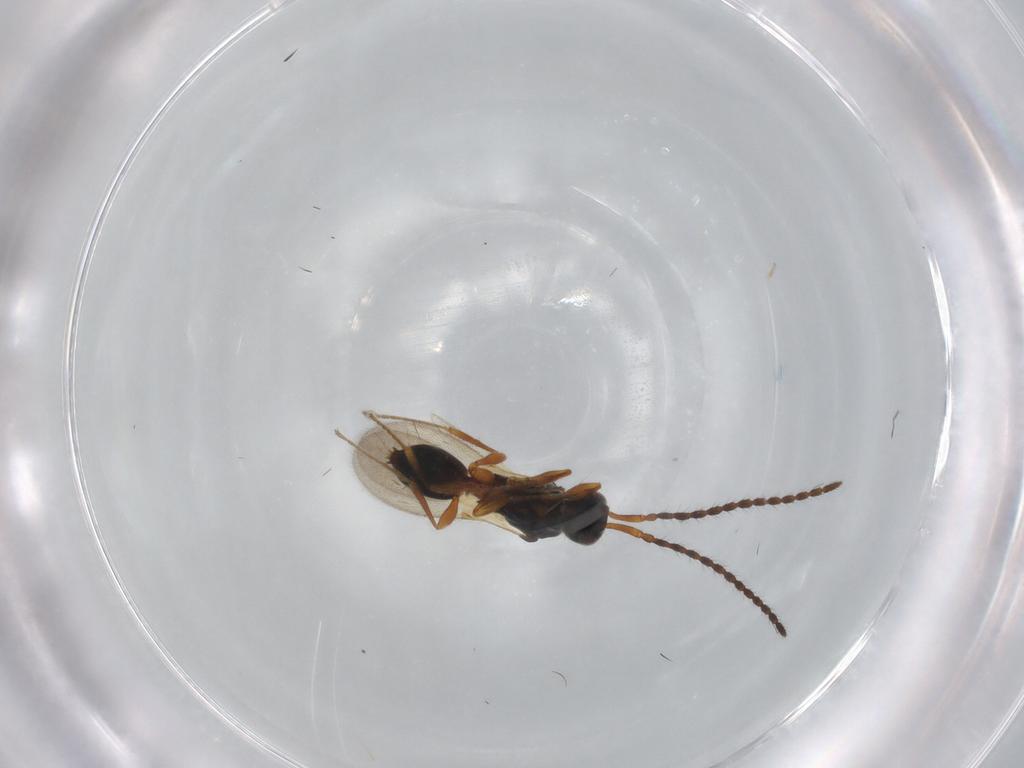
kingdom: Animalia
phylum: Arthropoda
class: Insecta
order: Hymenoptera
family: Diapriidae
